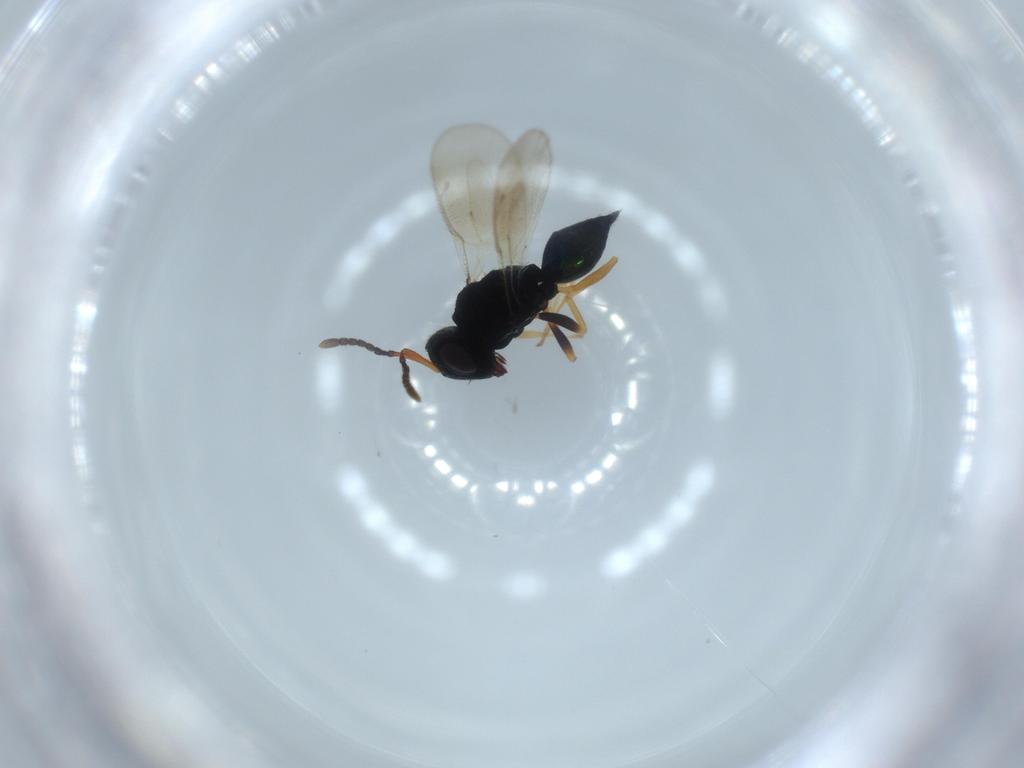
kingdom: Animalia
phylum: Arthropoda
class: Insecta
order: Hymenoptera
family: Pteromalidae
